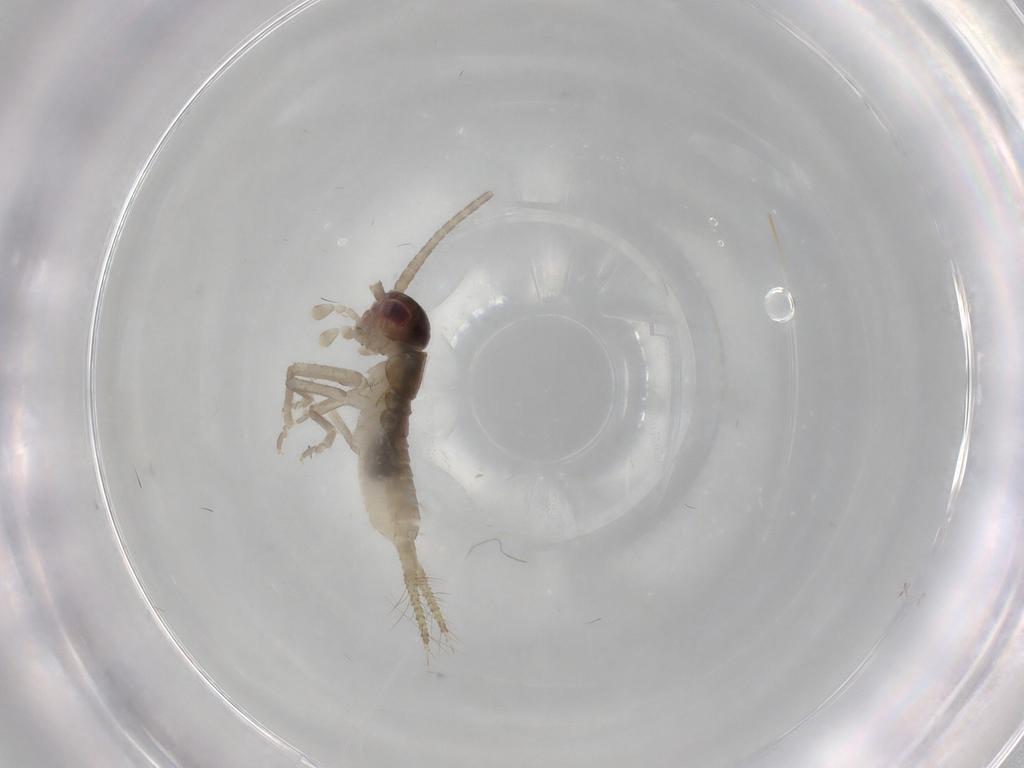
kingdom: Animalia
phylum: Arthropoda
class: Insecta
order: Orthoptera
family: Gryllidae
